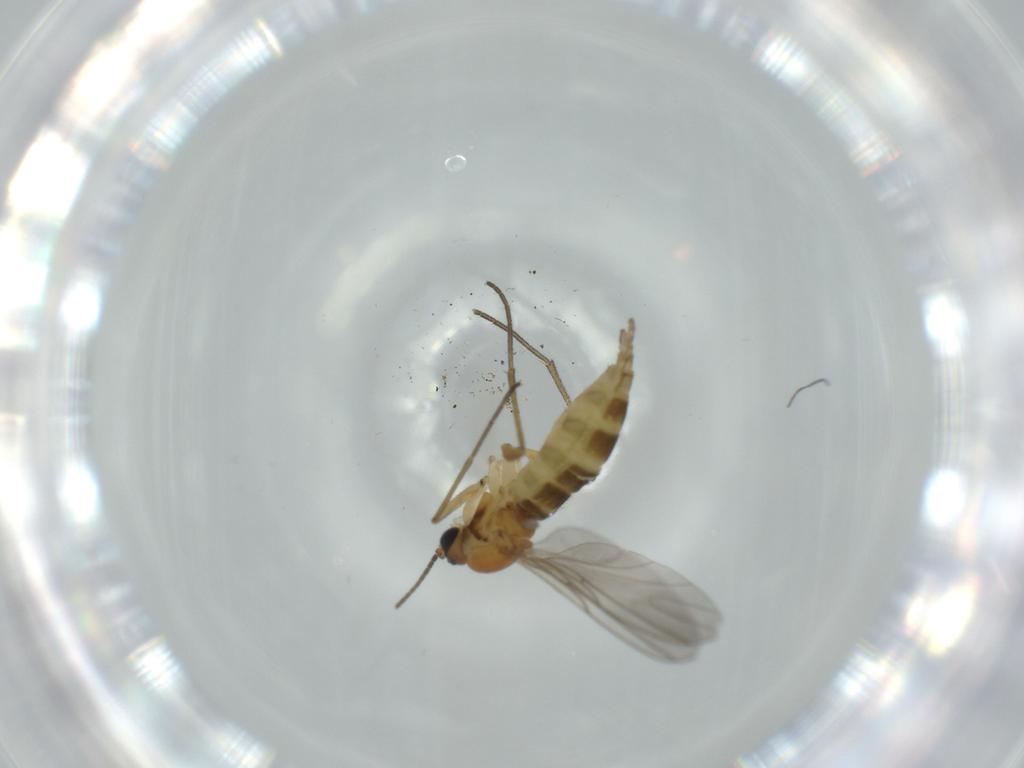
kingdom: Animalia
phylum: Arthropoda
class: Insecta
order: Diptera
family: Sciaridae
